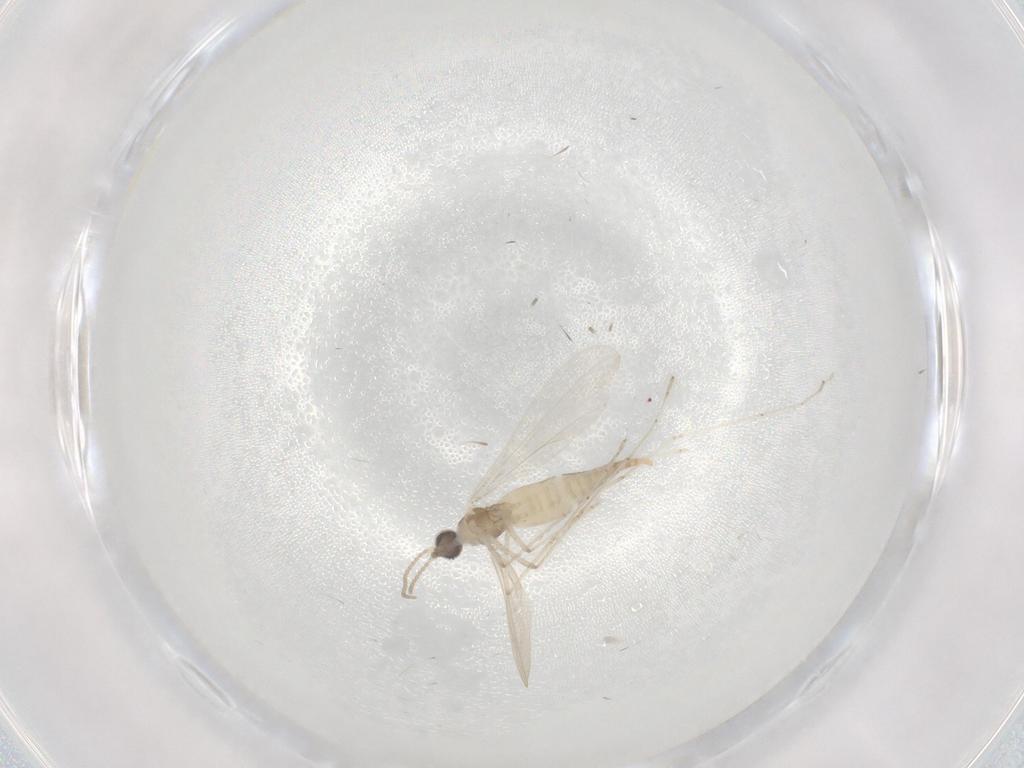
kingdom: Animalia
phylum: Arthropoda
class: Insecta
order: Diptera
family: Cecidomyiidae
